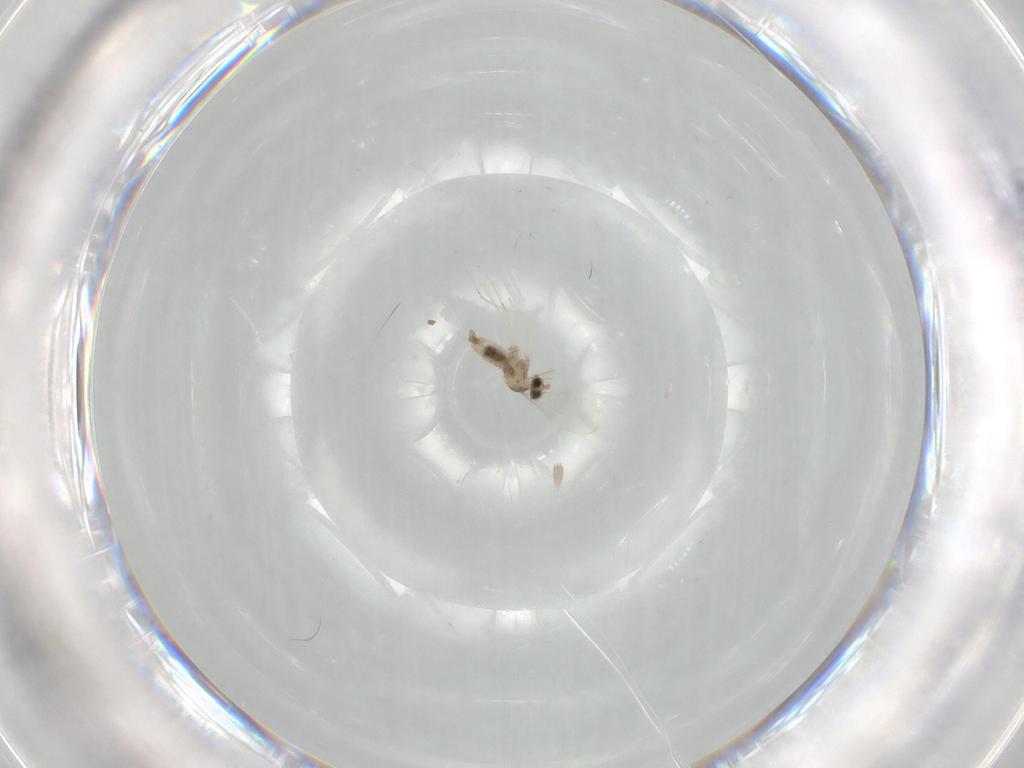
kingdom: Animalia
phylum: Arthropoda
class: Insecta
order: Diptera
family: Cecidomyiidae
